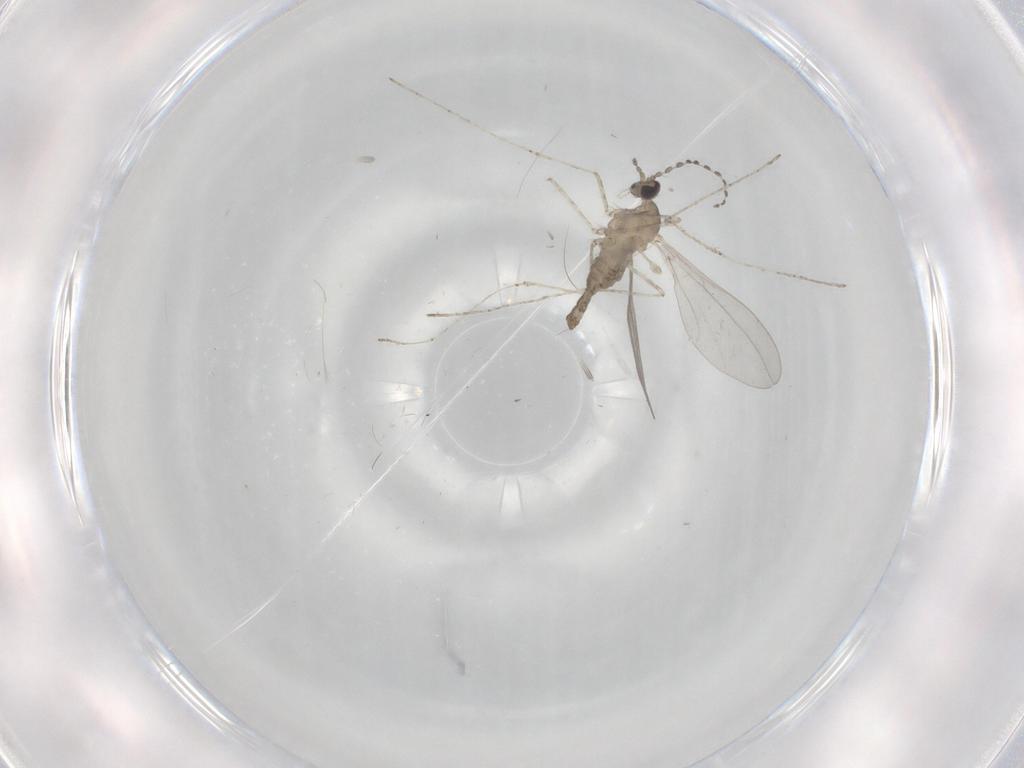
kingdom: Animalia
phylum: Arthropoda
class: Insecta
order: Diptera
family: Cecidomyiidae
